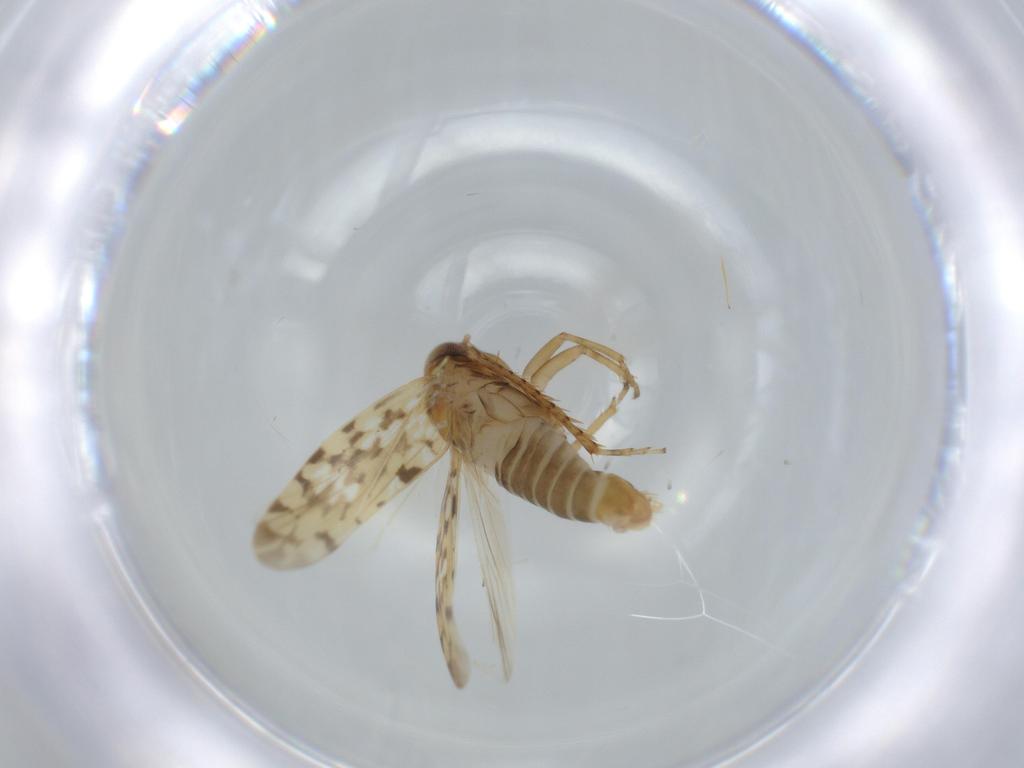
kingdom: Animalia
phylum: Arthropoda
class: Insecta
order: Hemiptera
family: Cicadellidae
